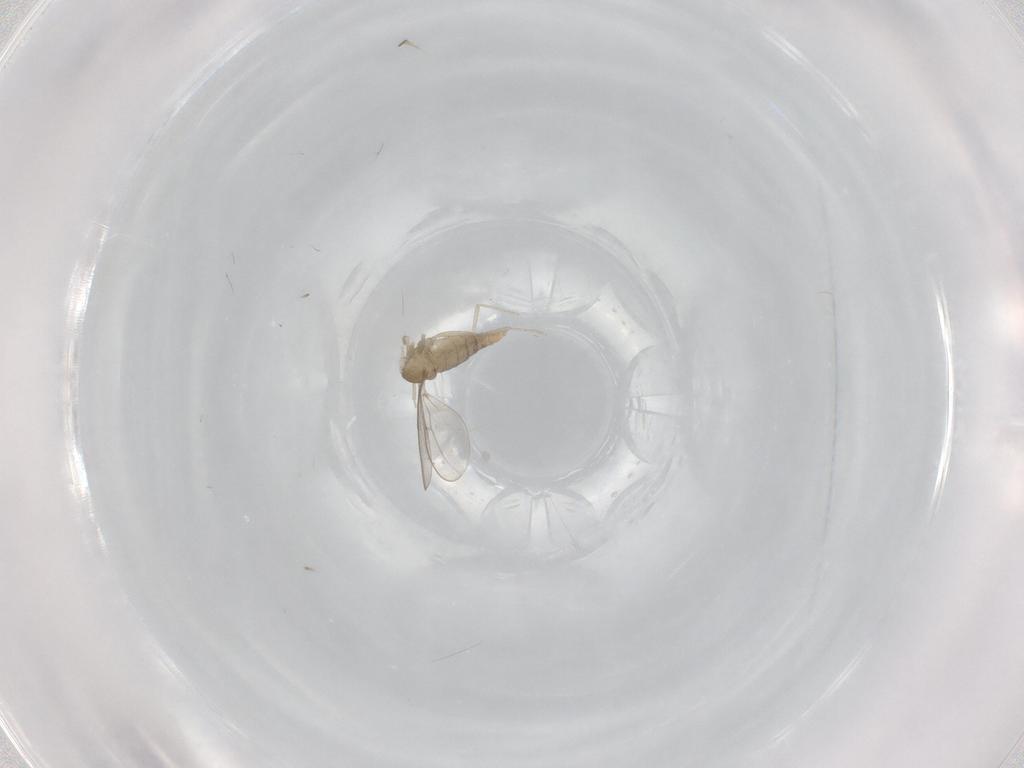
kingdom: Animalia
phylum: Arthropoda
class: Insecta
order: Diptera
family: Cecidomyiidae
